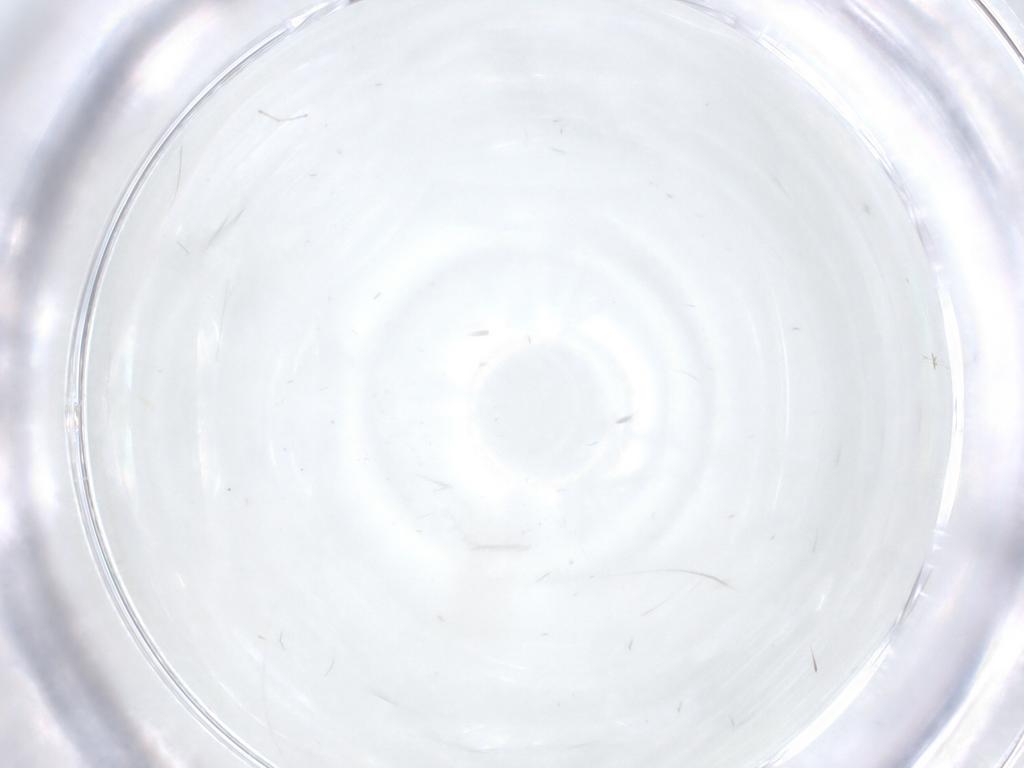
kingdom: Animalia
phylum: Arthropoda
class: Insecta
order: Diptera
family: Chironomidae
